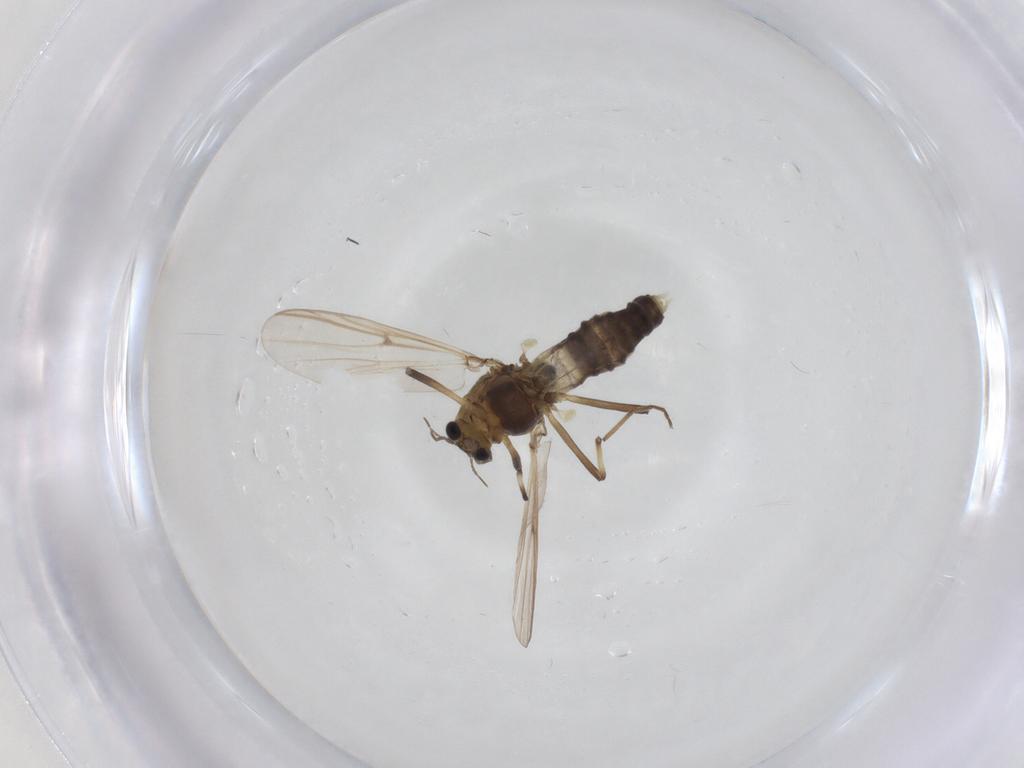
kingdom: Animalia
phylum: Arthropoda
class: Insecta
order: Diptera
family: Chironomidae
